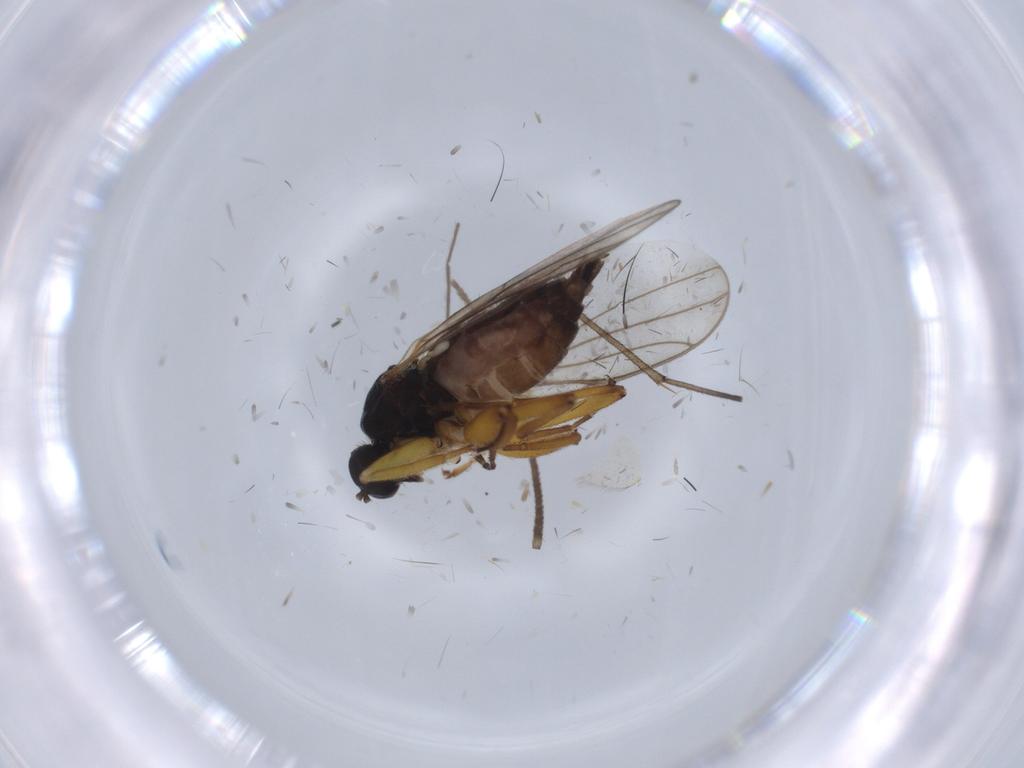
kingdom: Animalia
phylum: Arthropoda
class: Insecta
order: Diptera
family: Hybotidae
